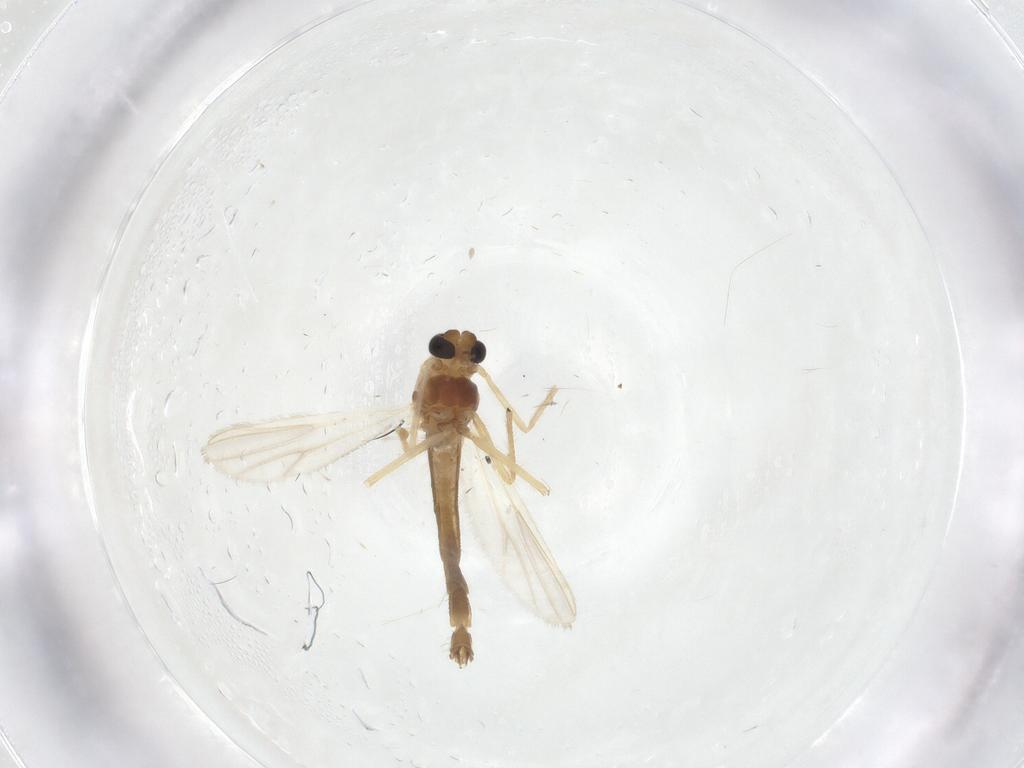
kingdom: Animalia
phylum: Arthropoda
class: Insecta
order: Diptera
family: Chironomidae
